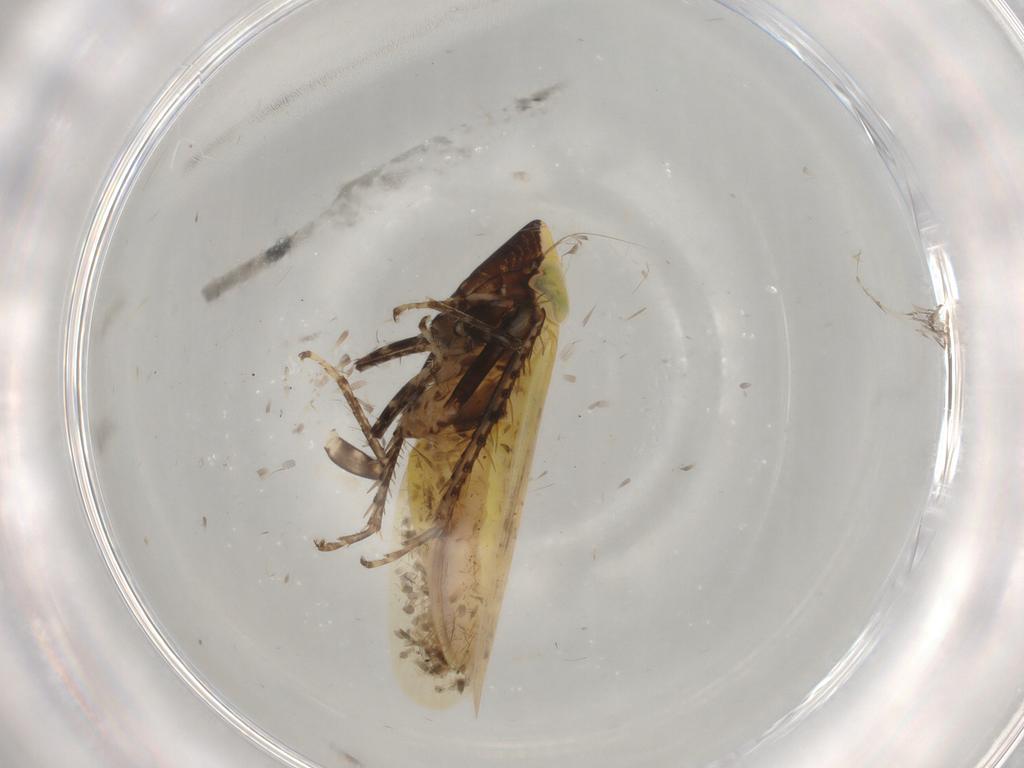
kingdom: Animalia
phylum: Arthropoda
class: Insecta
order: Hemiptera
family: Cicadellidae
